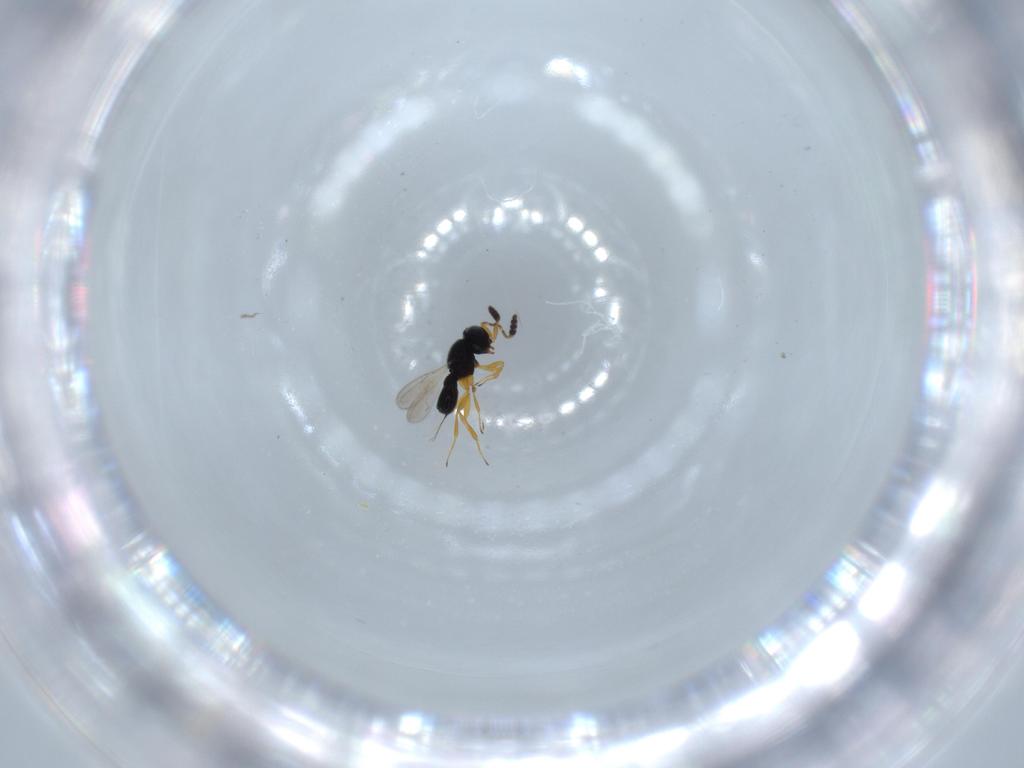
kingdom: Animalia
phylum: Arthropoda
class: Insecta
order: Hymenoptera
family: Scelionidae
